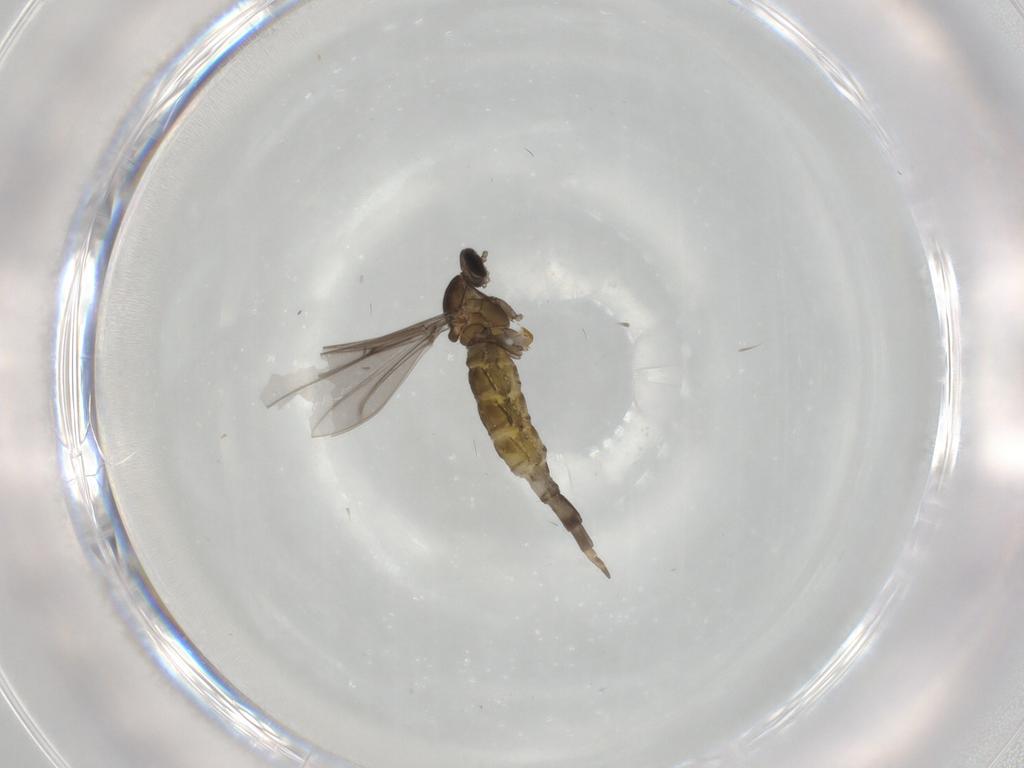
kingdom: Animalia
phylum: Arthropoda
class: Insecta
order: Diptera
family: Cecidomyiidae
